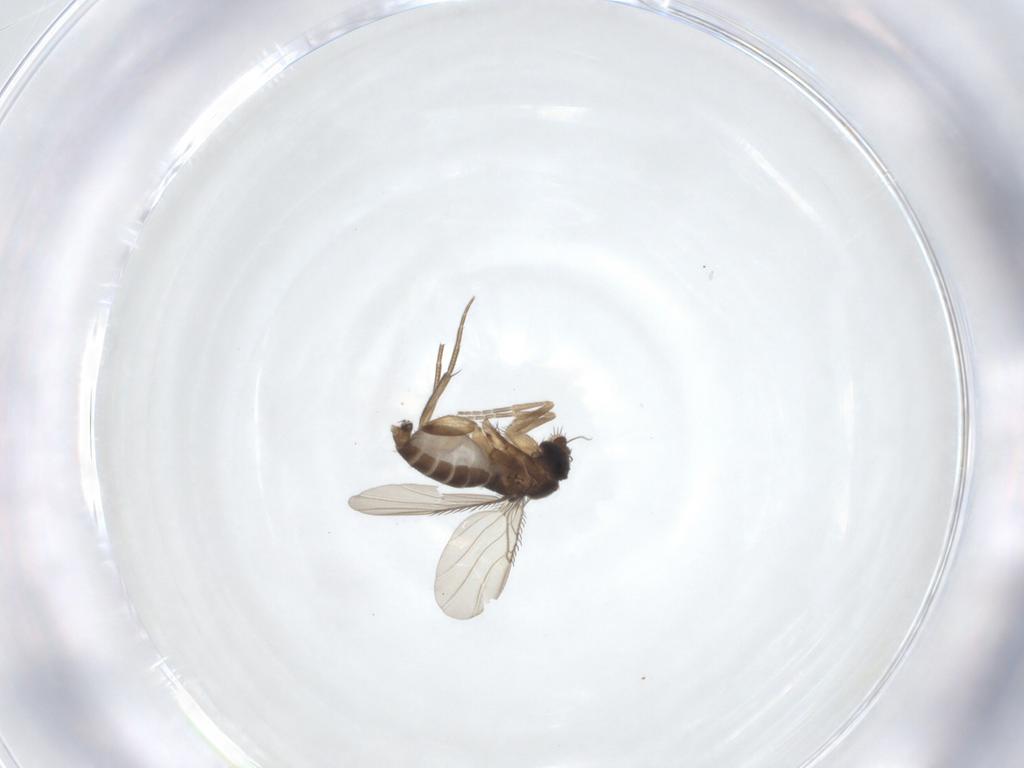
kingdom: Animalia
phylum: Arthropoda
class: Insecta
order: Diptera
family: Phoridae
